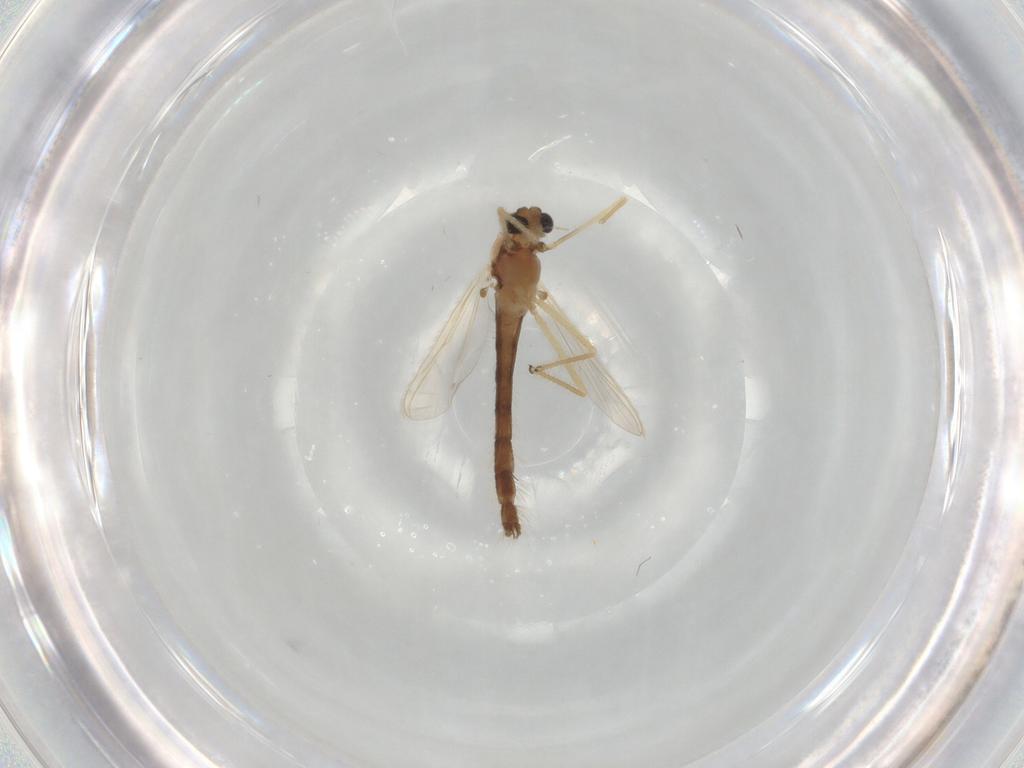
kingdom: Animalia
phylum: Arthropoda
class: Insecta
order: Diptera
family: Chironomidae
